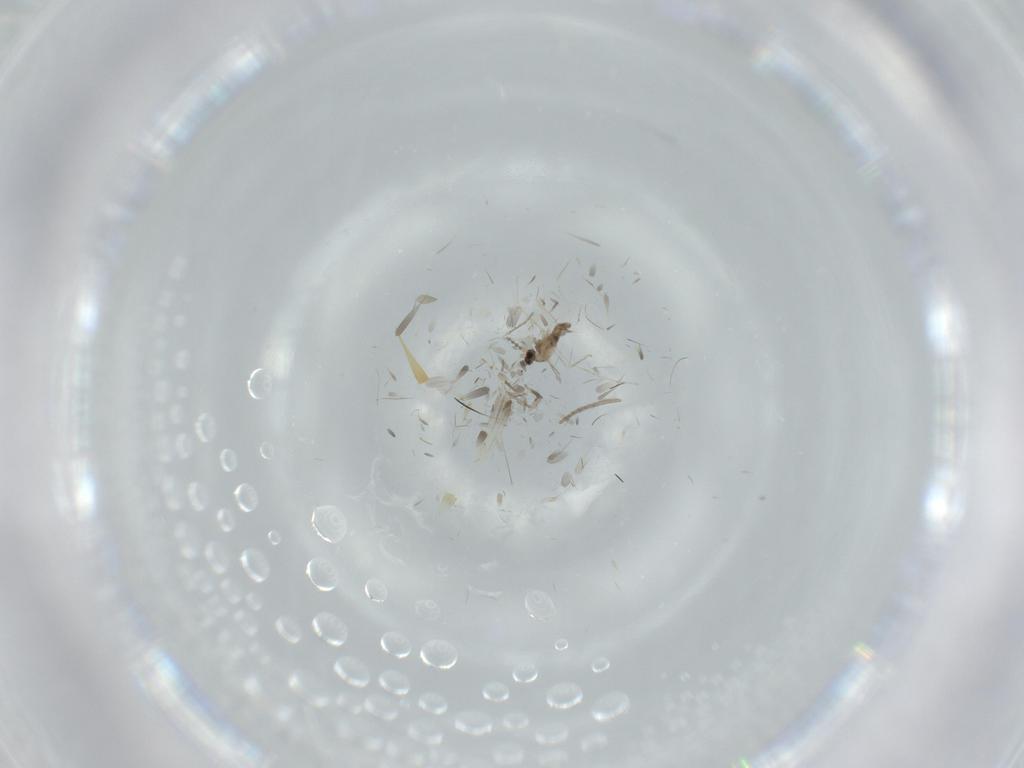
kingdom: Animalia
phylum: Arthropoda
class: Insecta
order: Diptera
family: Cecidomyiidae
